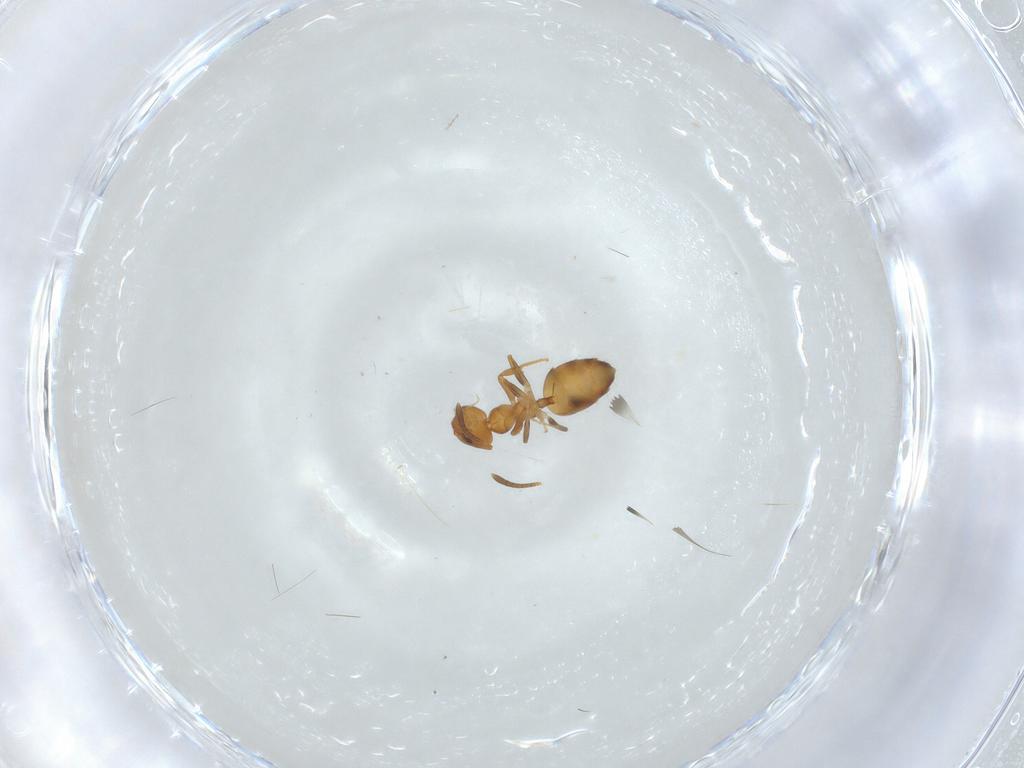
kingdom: Animalia
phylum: Arthropoda
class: Insecta
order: Hymenoptera
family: Formicidae
